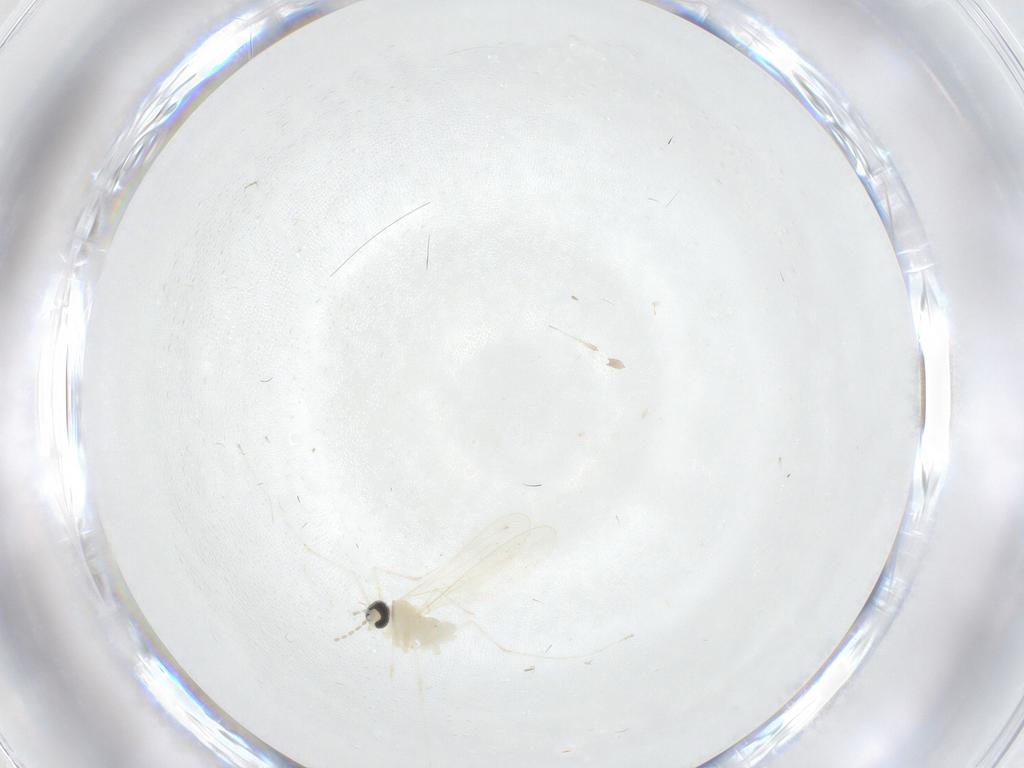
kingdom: Animalia
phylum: Arthropoda
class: Insecta
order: Diptera
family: Cecidomyiidae
